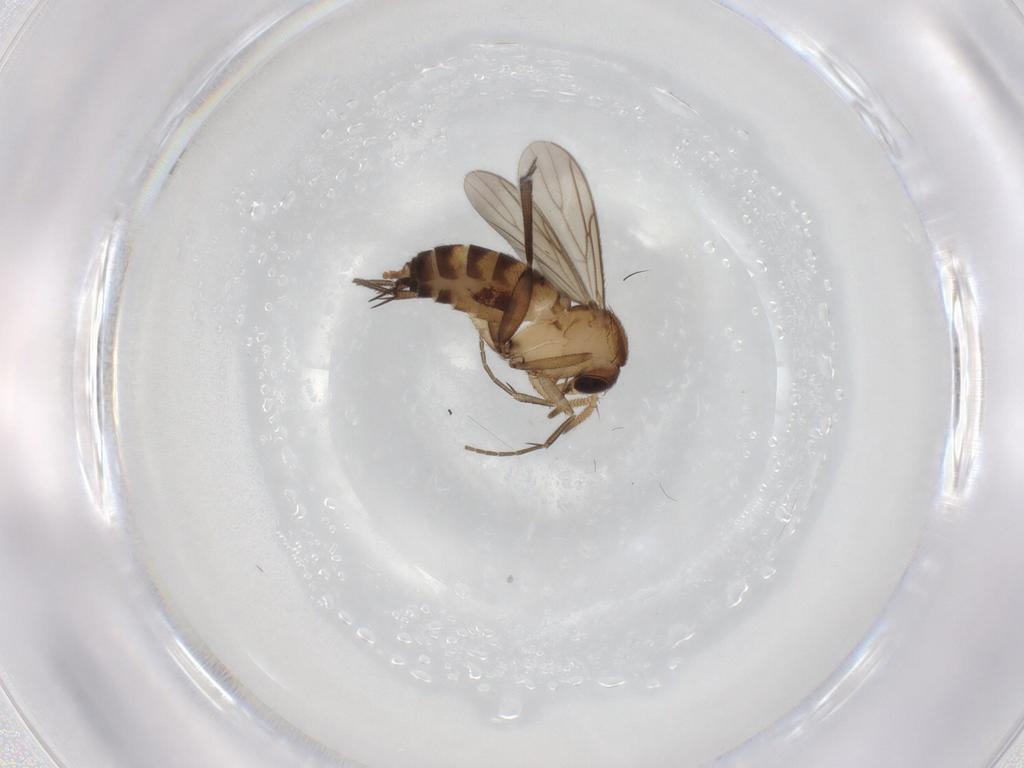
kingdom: Animalia
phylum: Arthropoda
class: Insecta
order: Diptera
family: Mycetophilidae
